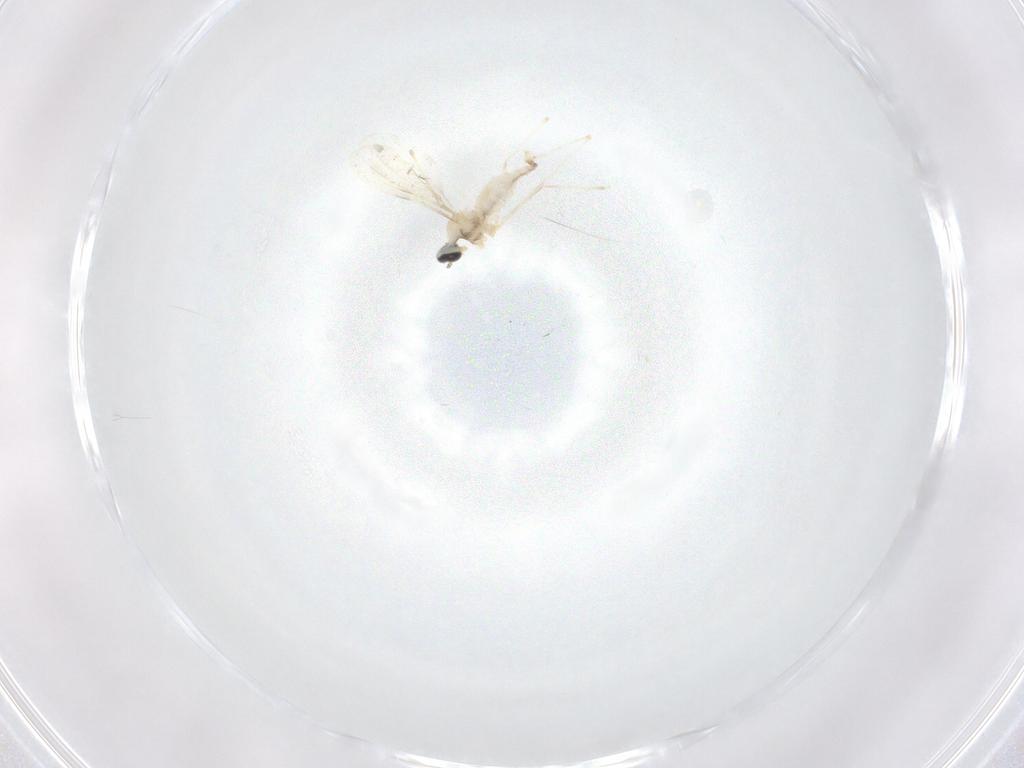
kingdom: Animalia
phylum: Arthropoda
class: Insecta
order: Diptera
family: Cecidomyiidae
